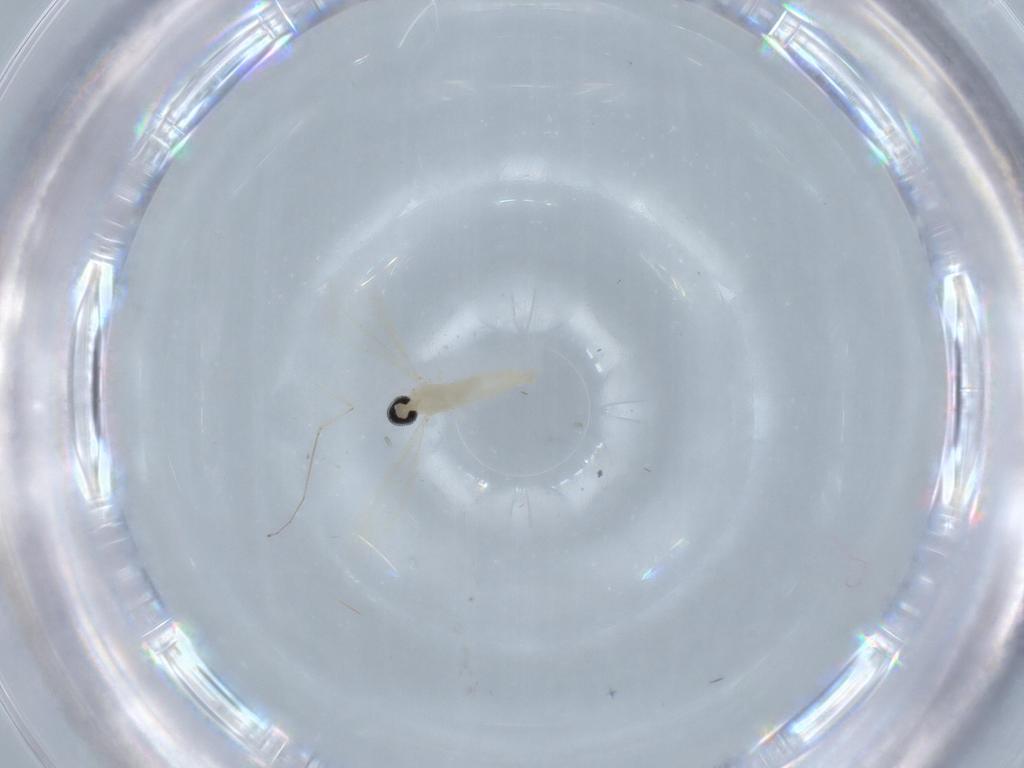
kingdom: Animalia
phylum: Arthropoda
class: Insecta
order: Diptera
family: Cecidomyiidae
